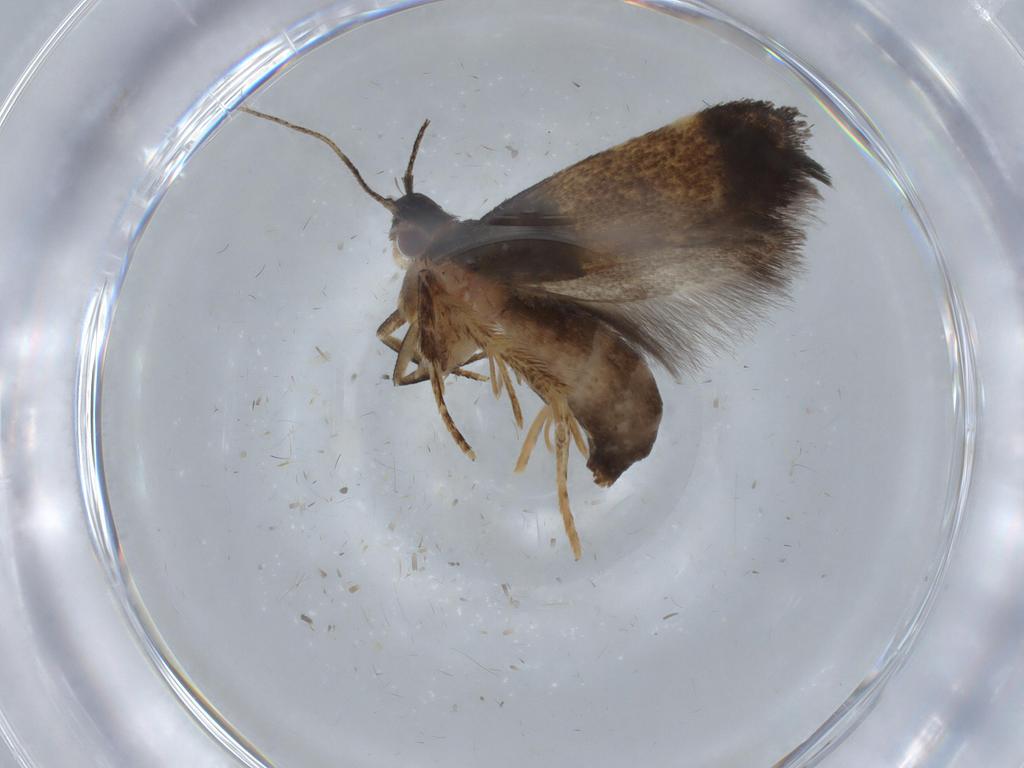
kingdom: Animalia
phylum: Arthropoda
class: Insecta
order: Lepidoptera
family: Cosmopterigidae
